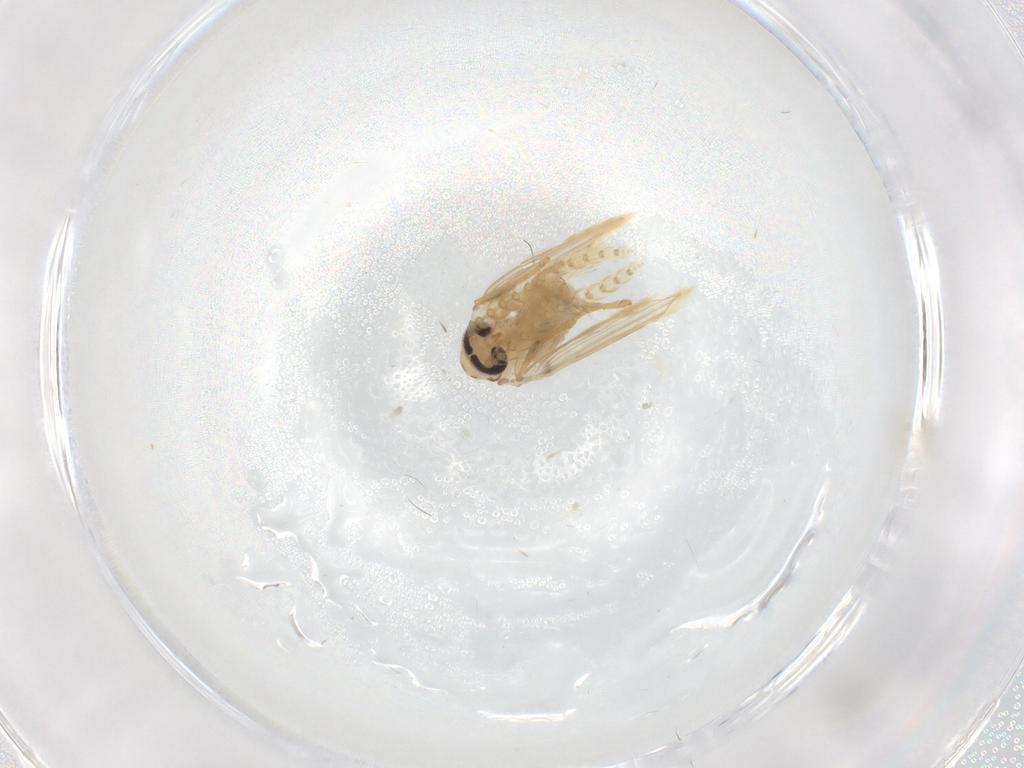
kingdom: Animalia
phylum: Arthropoda
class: Insecta
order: Diptera
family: Psychodidae
